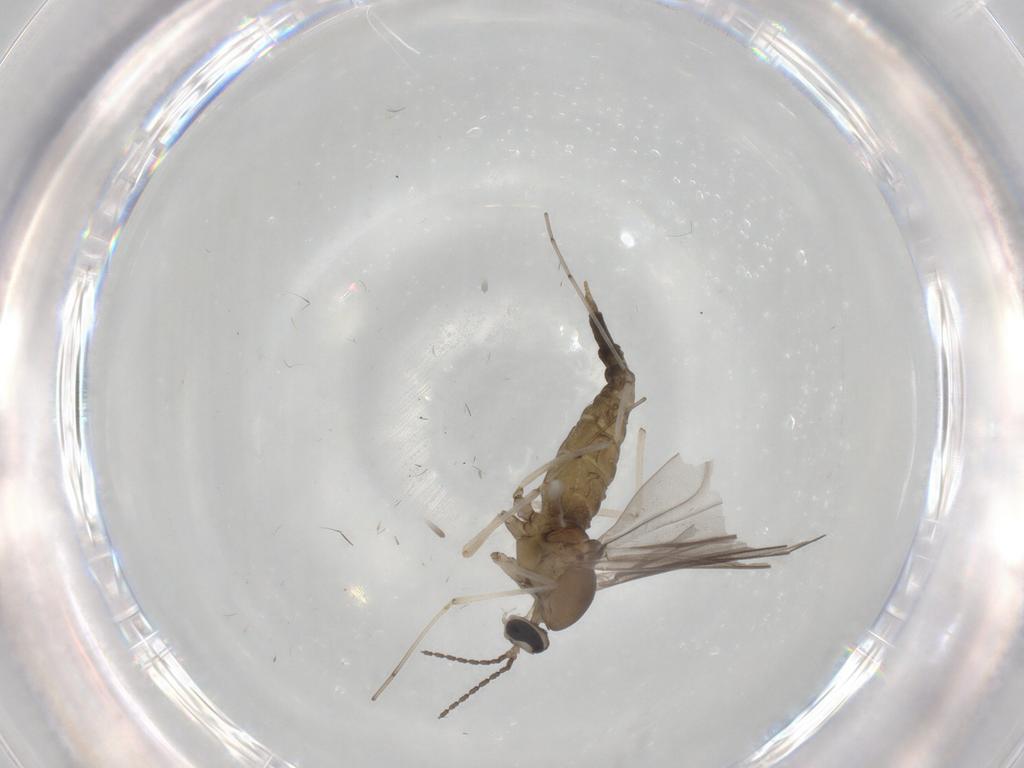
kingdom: Animalia
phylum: Arthropoda
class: Insecta
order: Diptera
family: Cecidomyiidae
